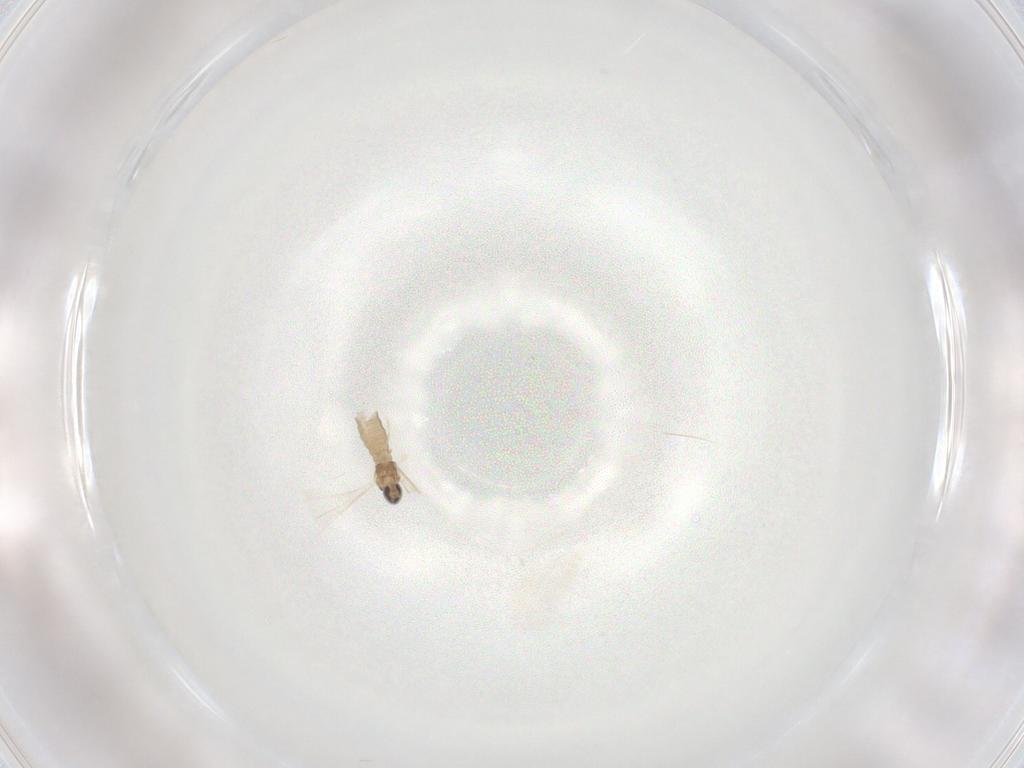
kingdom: Animalia
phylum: Arthropoda
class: Insecta
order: Diptera
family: Cecidomyiidae
